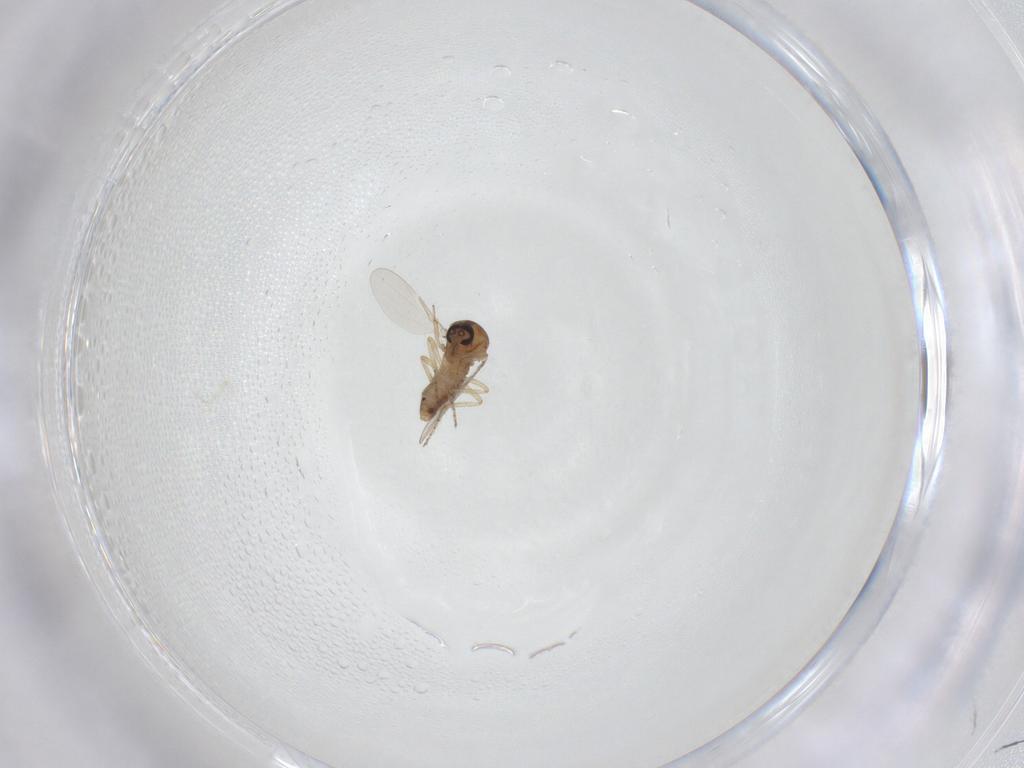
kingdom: Animalia
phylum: Arthropoda
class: Insecta
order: Diptera
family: Ceratopogonidae
